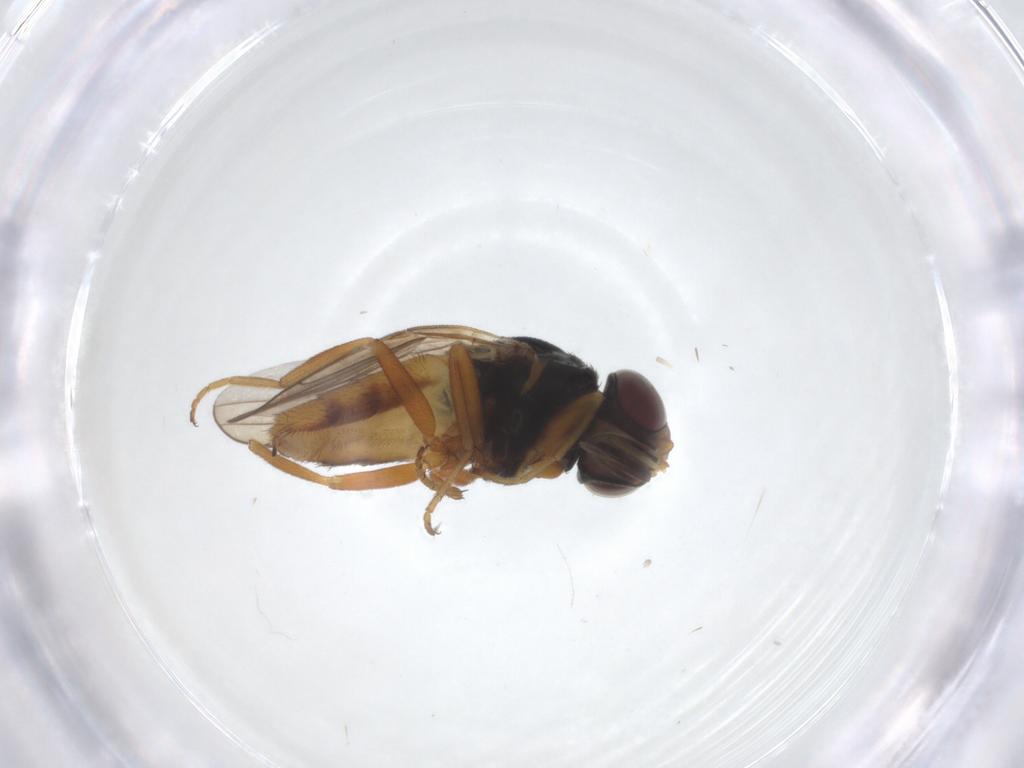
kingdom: Animalia
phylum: Arthropoda
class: Insecta
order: Diptera
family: Chloropidae
